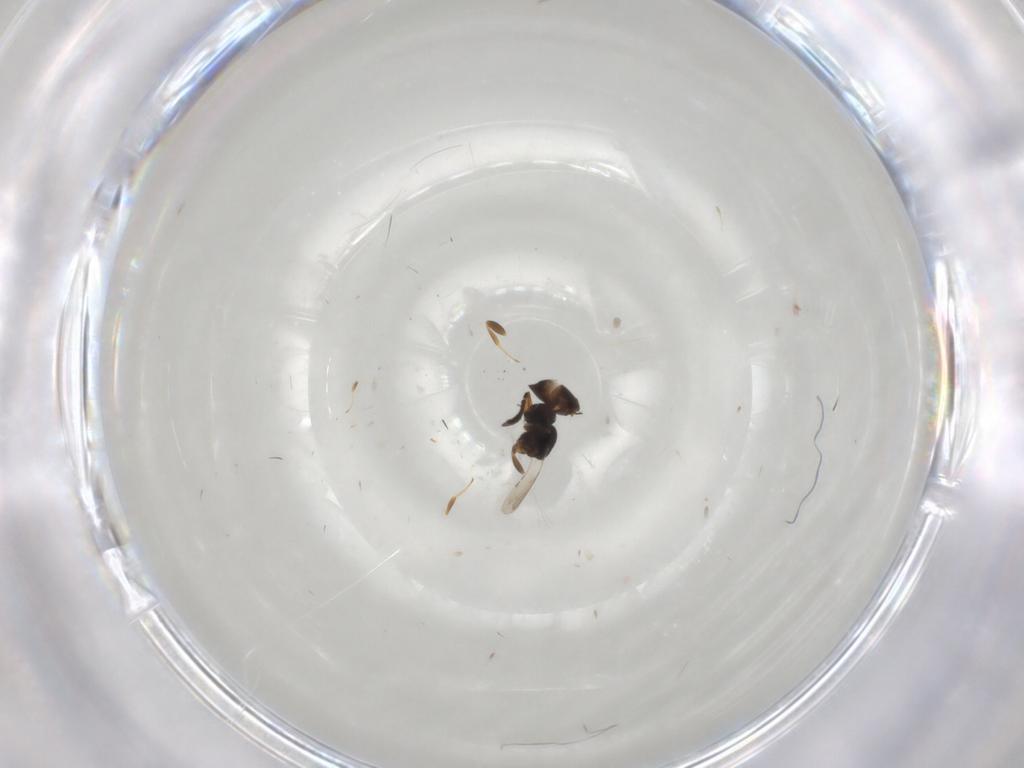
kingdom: Animalia
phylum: Arthropoda
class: Insecta
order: Hymenoptera
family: Ceraphronidae
